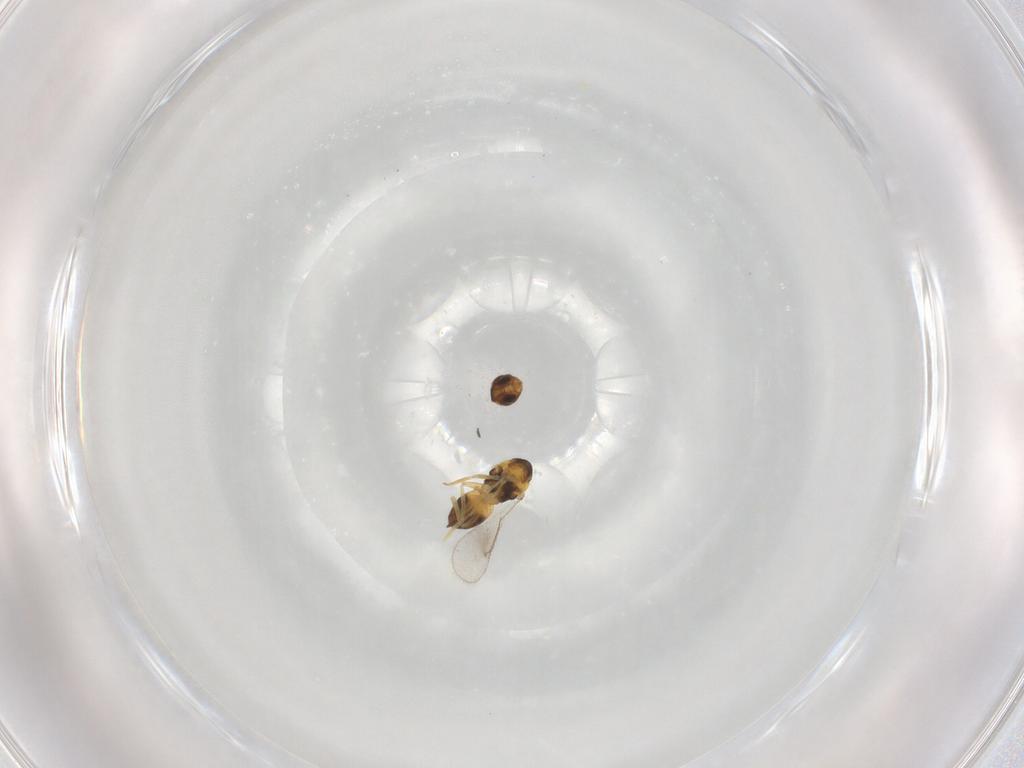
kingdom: Animalia
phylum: Arthropoda
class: Insecta
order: Hymenoptera
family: Eulophidae
